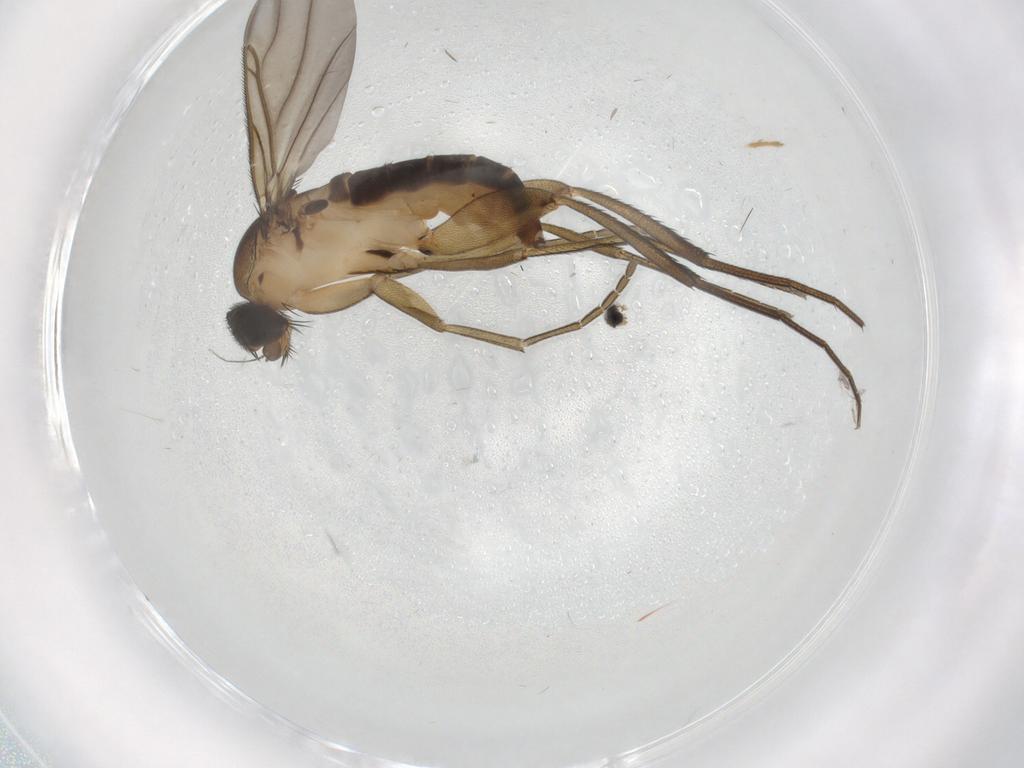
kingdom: Animalia
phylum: Arthropoda
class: Insecta
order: Diptera
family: Phoridae
